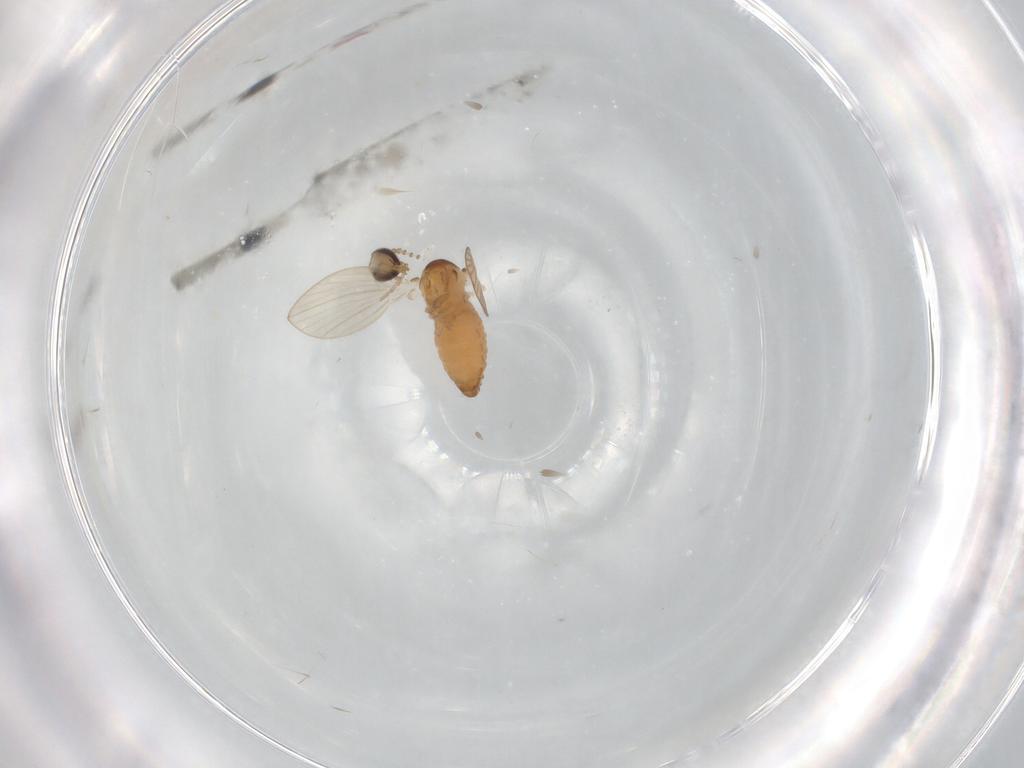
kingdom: Animalia
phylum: Arthropoda
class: Insecta
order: Diptera
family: Psychodidae
